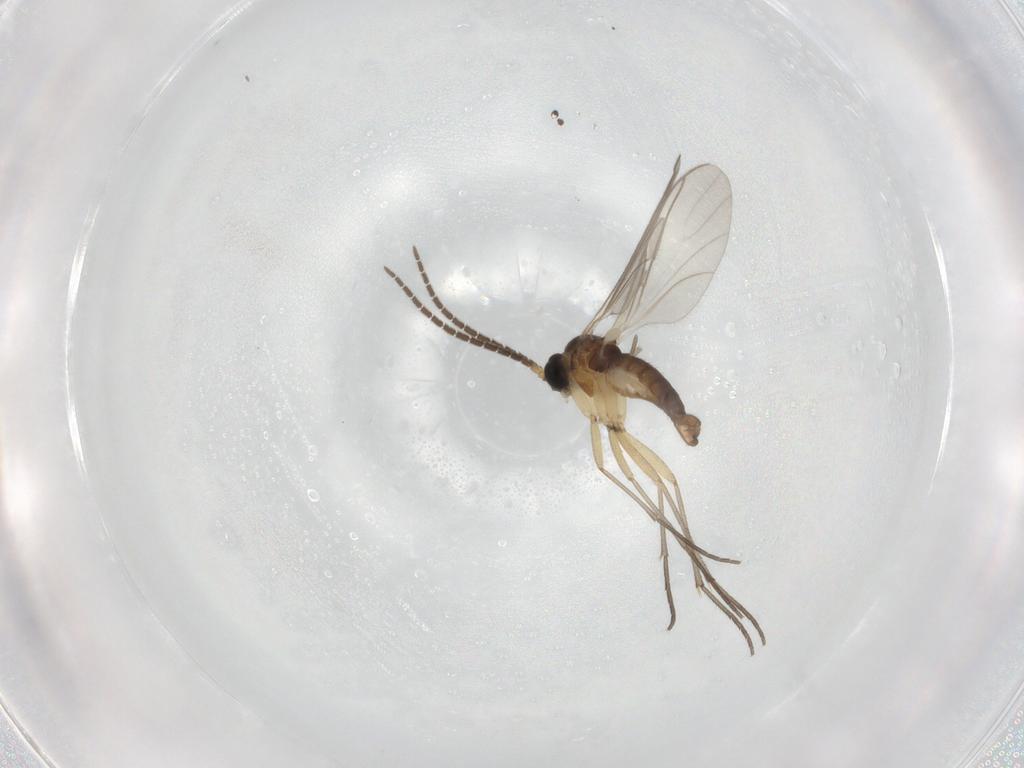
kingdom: Animalia
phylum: Arthropoda
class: Insecta
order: Diptera
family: Sciaridae
